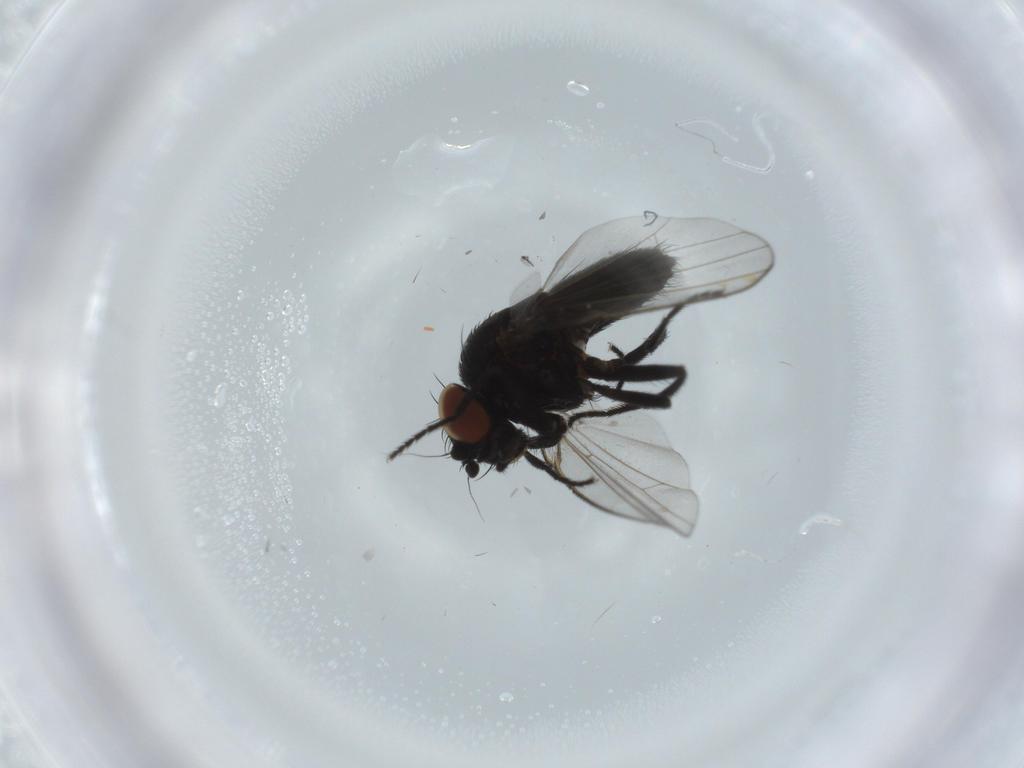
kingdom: Animalia
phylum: Arthropoda
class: Insecta
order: Diptera
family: Milichiidae
